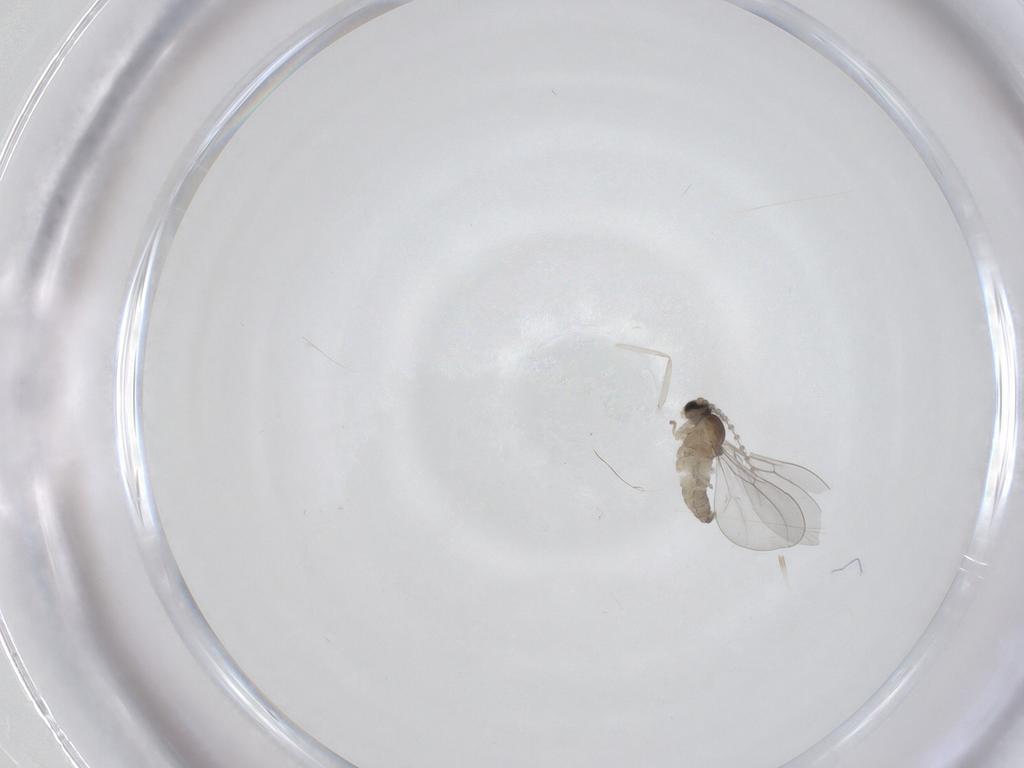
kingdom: Animalia
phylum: Arthropoda
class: Insecta
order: Diptera
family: Cecidomyiidae
